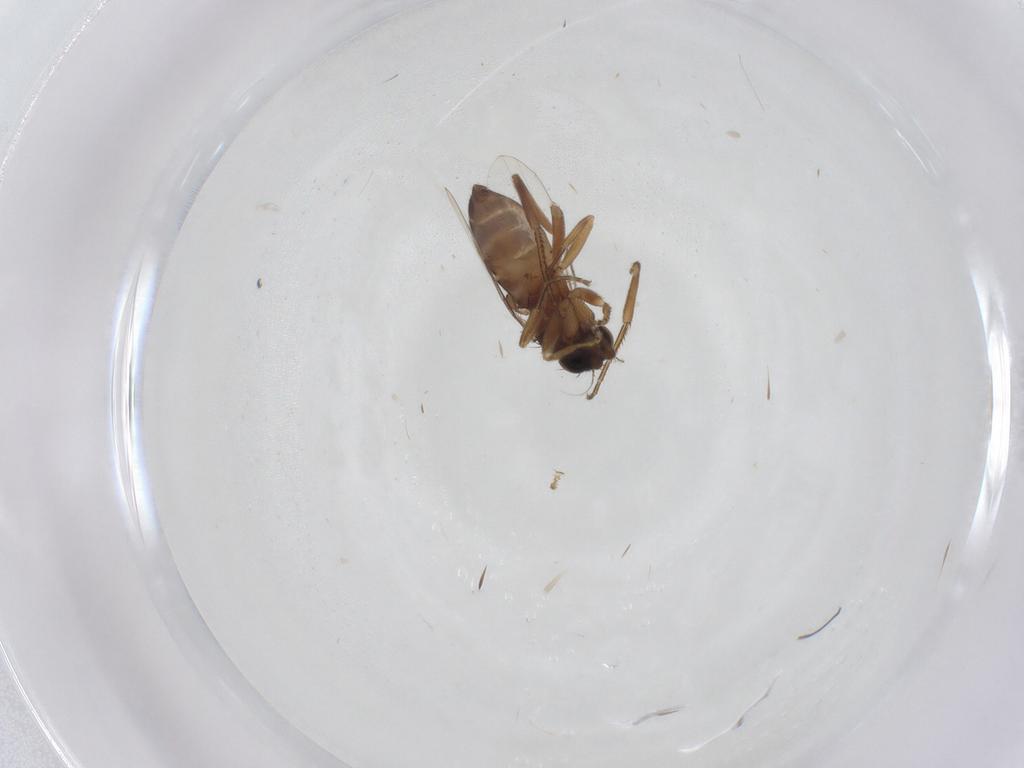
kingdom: Animalia
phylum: Arthropoda
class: Insecta
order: Diptera
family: Phoridae
